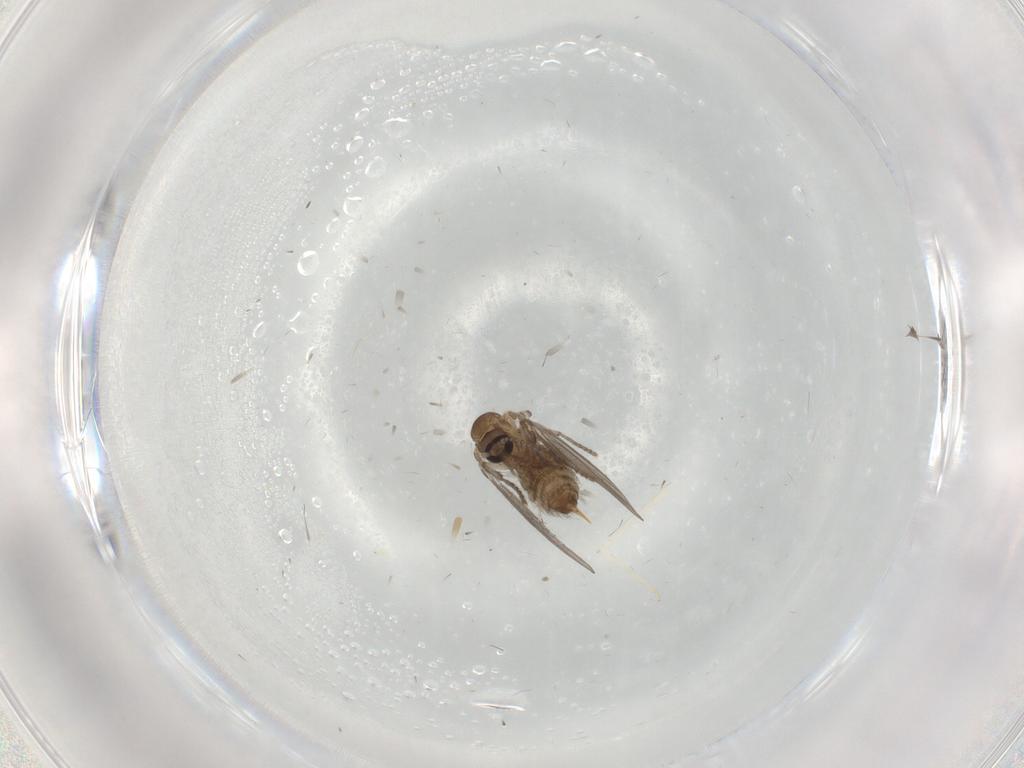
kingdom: Animalia
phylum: Arthropoda
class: Insecta
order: Diptera
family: Psychodidae
